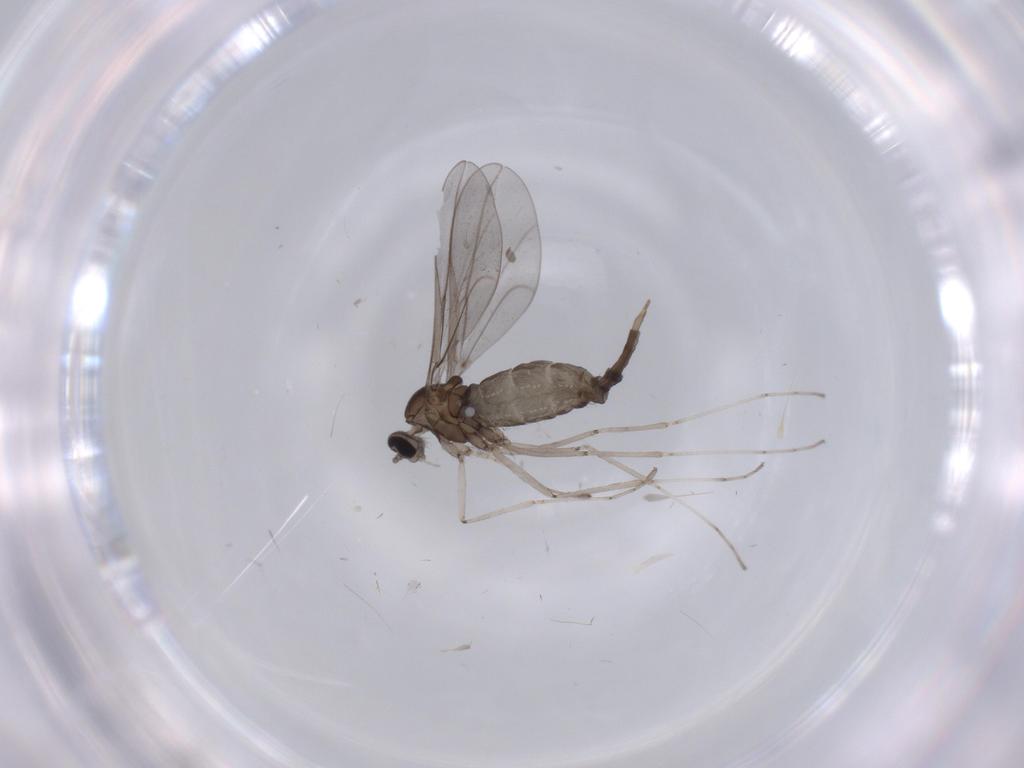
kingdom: Animalia
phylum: Arthropoda
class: Insecta
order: Diptera
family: Cecidomyiidae
